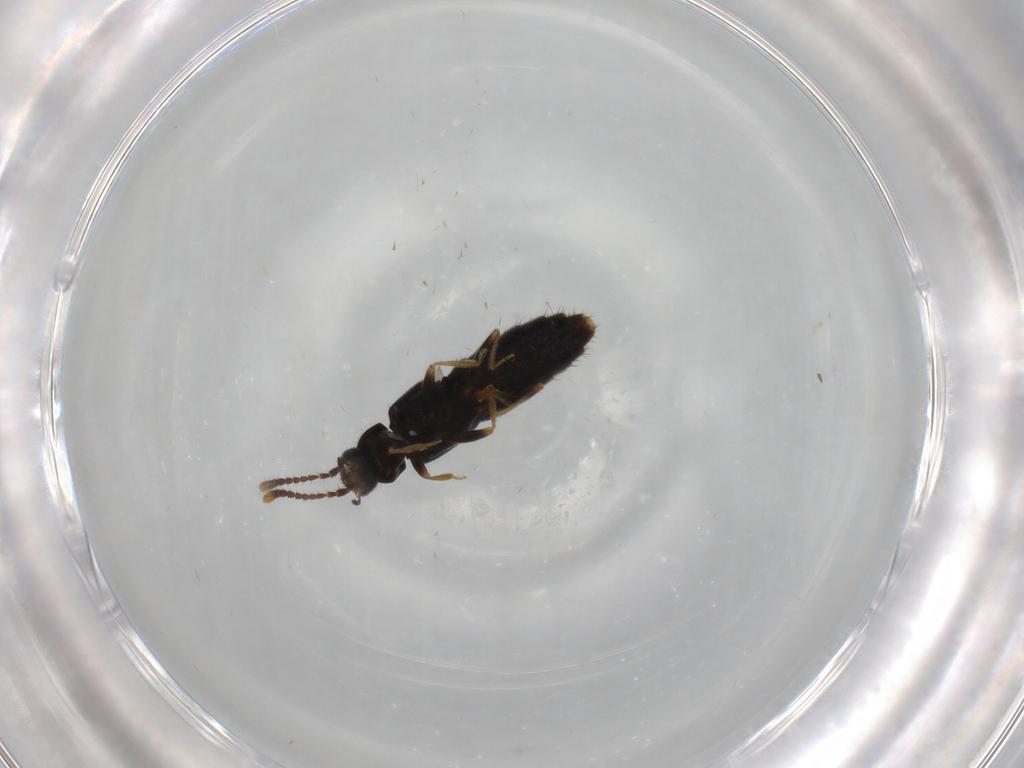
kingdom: Animalia
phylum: Arthropoda
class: Insecta
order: Coleoptera
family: Staphylinidae
